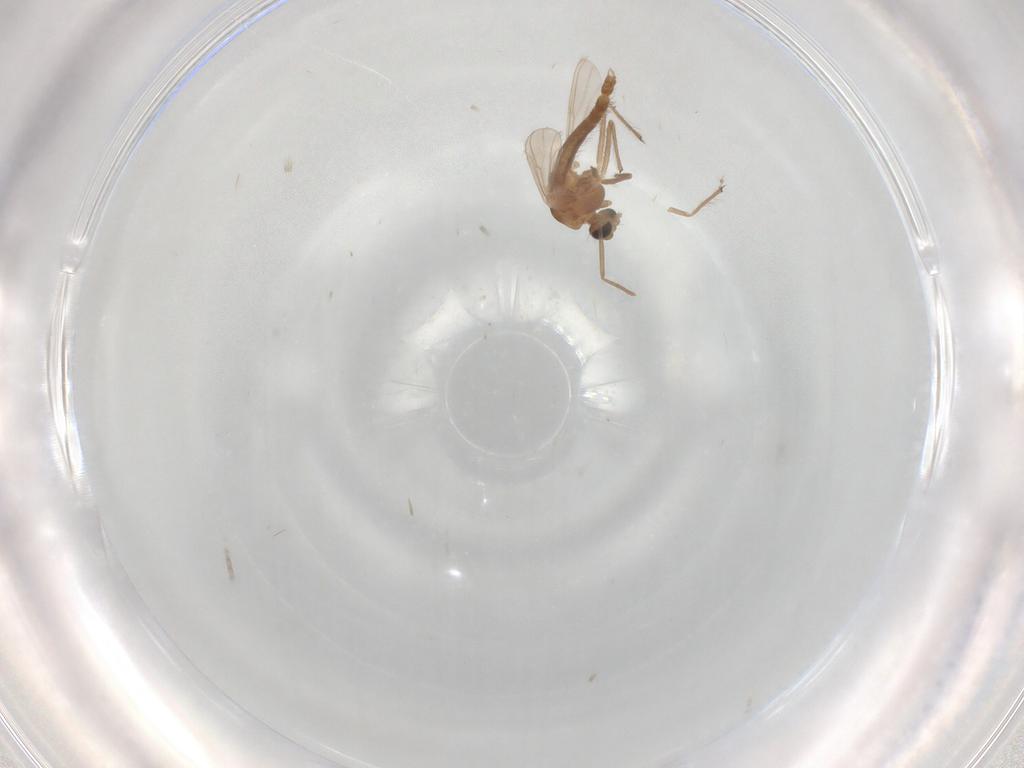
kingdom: Animalia
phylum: Arthropoda
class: Insecta
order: Diptera
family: Chironomidae
